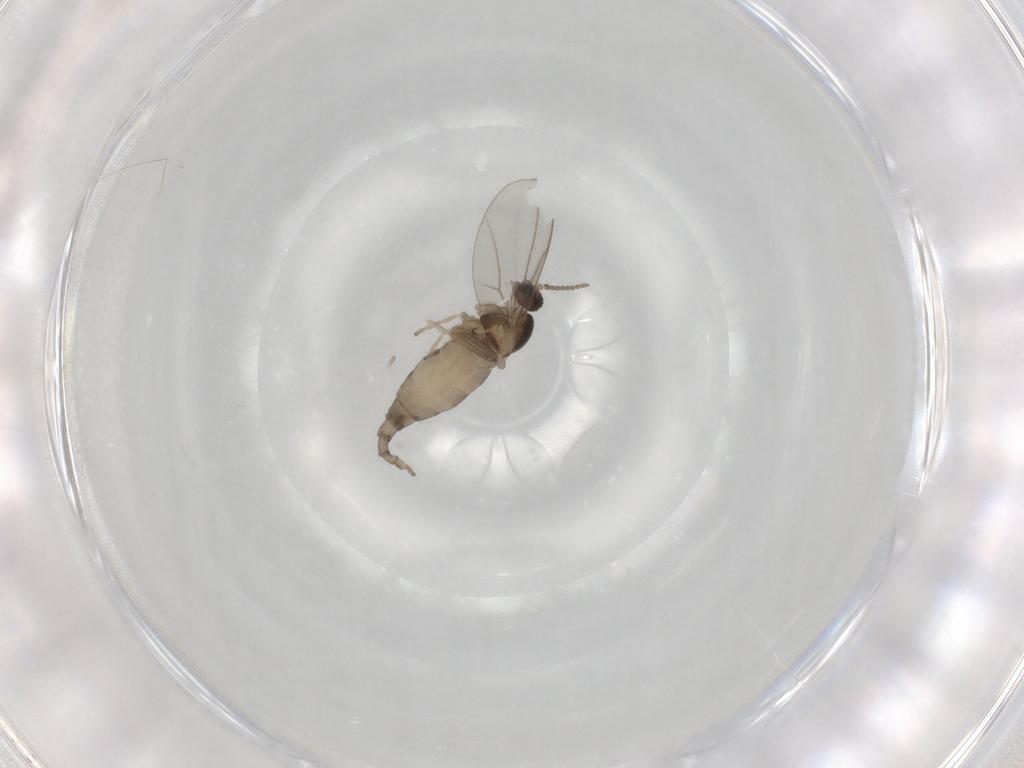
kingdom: Animalia
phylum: Arthropoda
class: Insecta
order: Diptera
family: Cecidomyiidae
